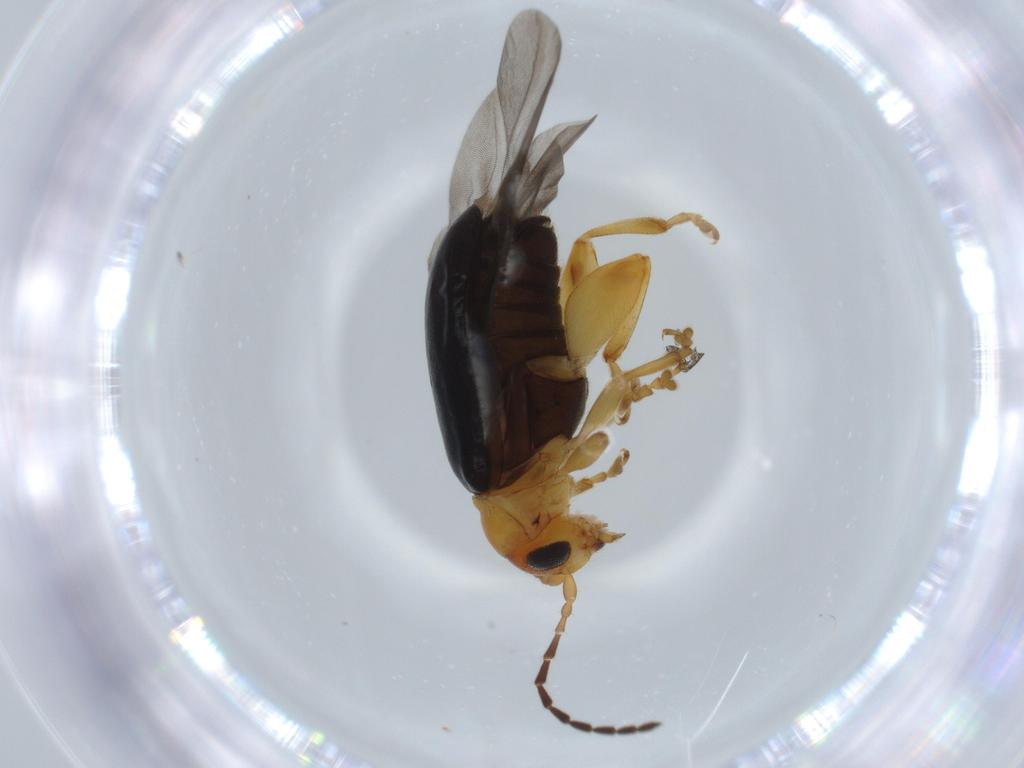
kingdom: Animalia
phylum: Arthropoda
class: Insecta
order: Coleoptera
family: Chrysomelidae
